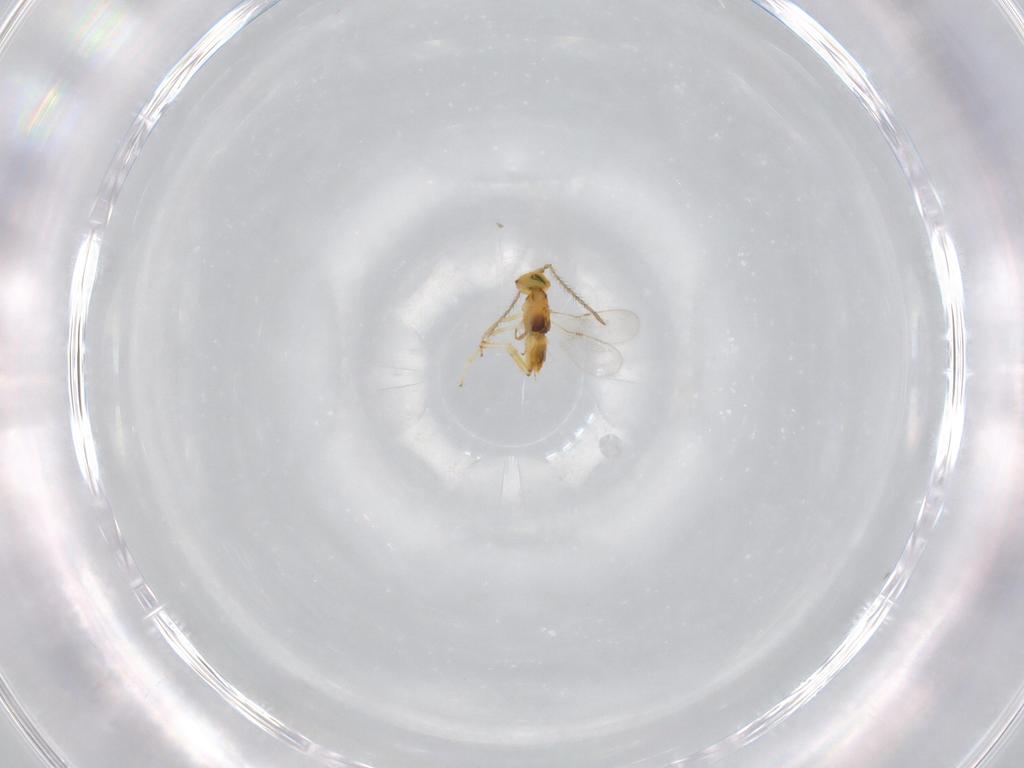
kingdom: Animalia
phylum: Arthropoda
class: Insecta
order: Hymenoptera
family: Encyrtidae
